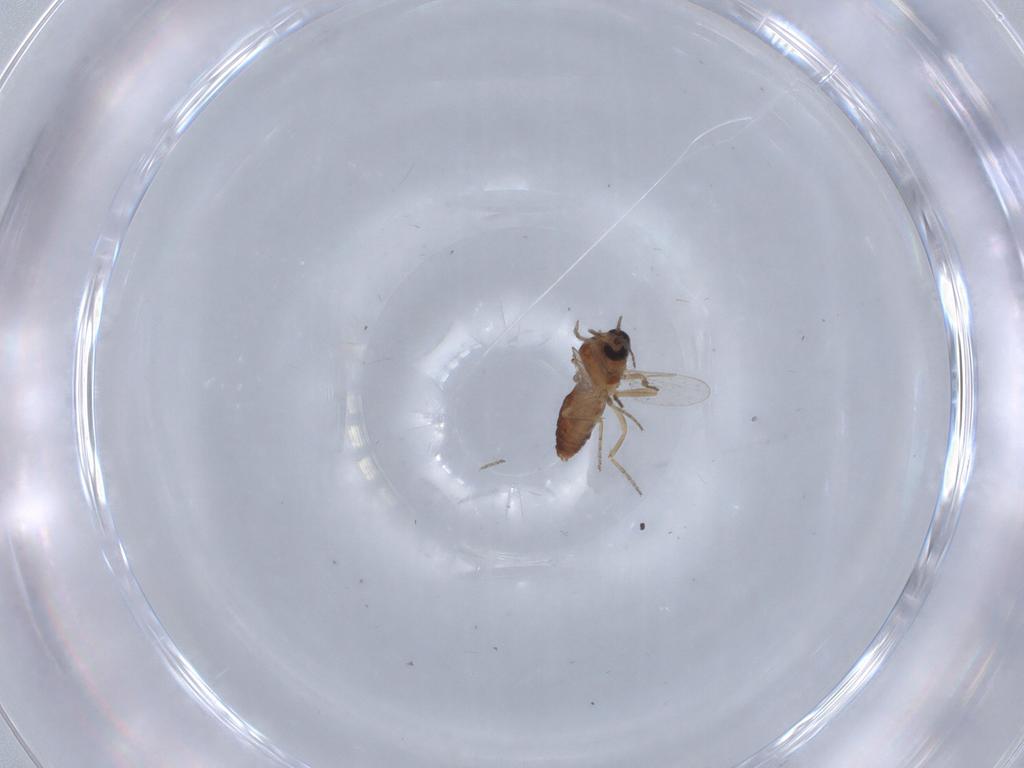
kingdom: Animalia
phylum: Arthropoda
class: Insecta
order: Diptera
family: Ceratopogonidae
